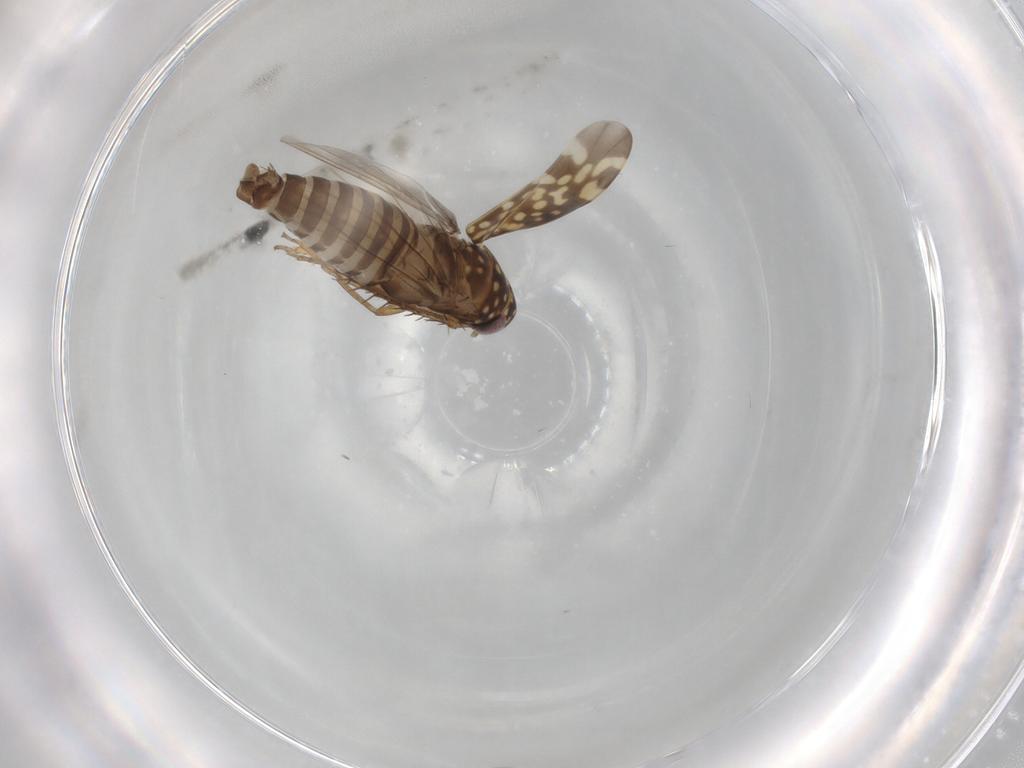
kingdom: Animalia
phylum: Arthropoda
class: Insecta
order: Hemiptera
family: Cicadellidae
